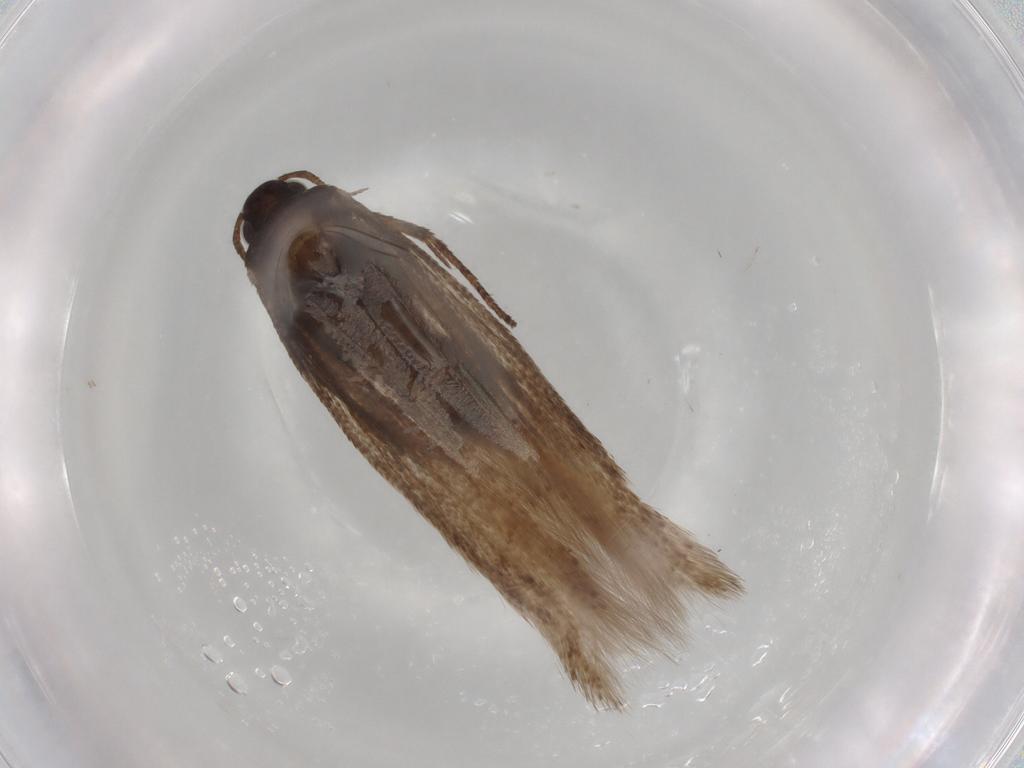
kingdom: Animalia
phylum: Arthropoda
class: Insecta
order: Lepidoptera
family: Gelechiidae
